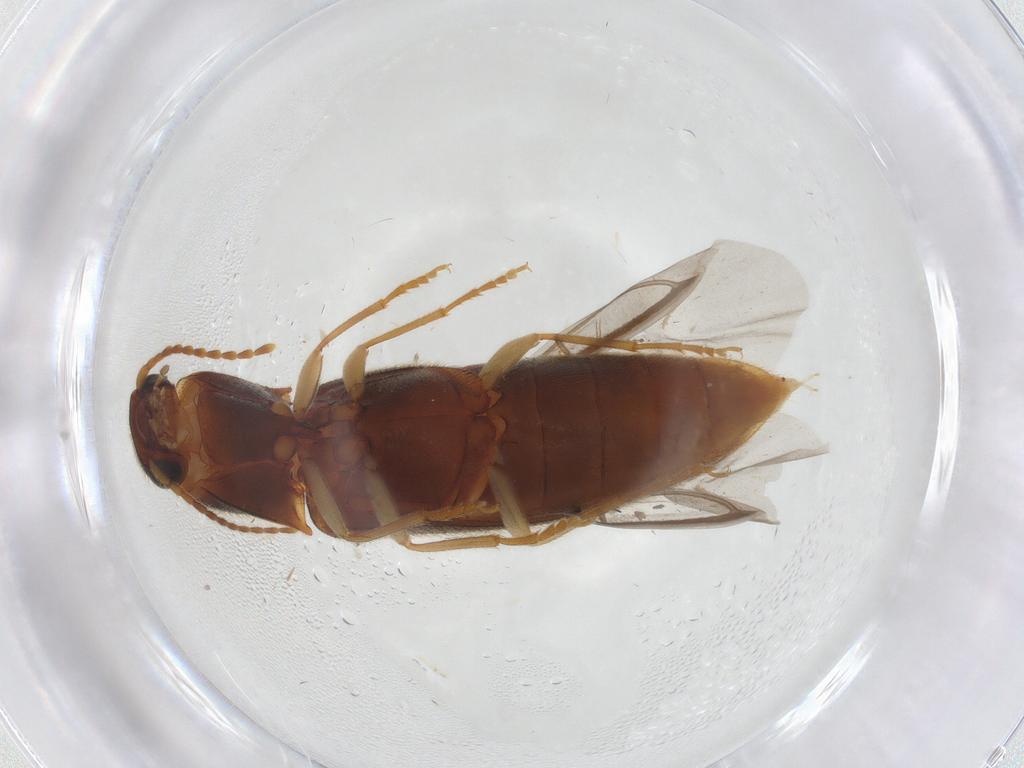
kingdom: Animalia
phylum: Arthropoda
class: Insecta
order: Coleoptera
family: Elateridae
